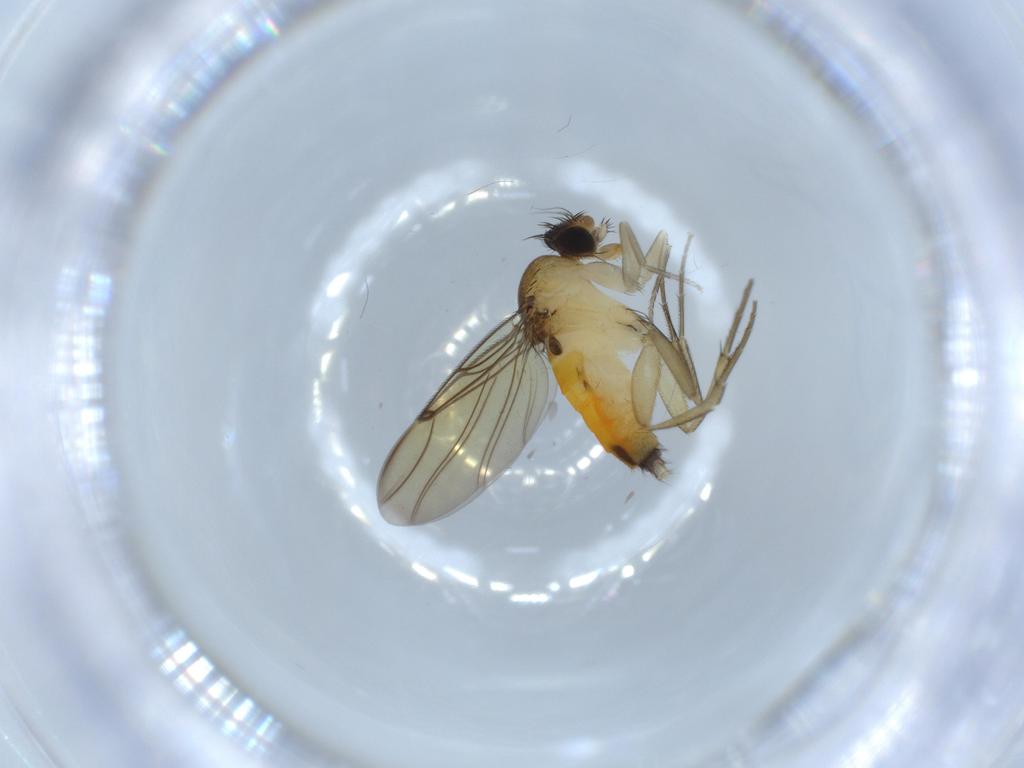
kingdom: Animalia
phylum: Arthropoda
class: Insecta
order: Diptera
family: Phoridae
